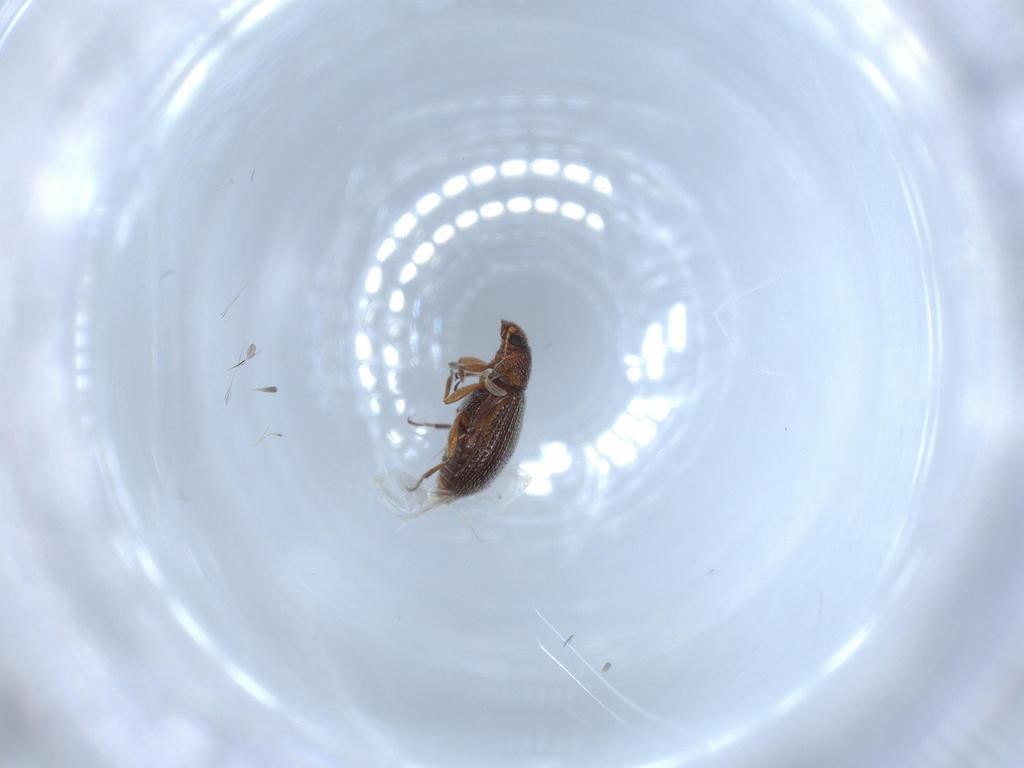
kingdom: Animalia
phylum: Arthropoda
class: Insecta
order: Coleoptera
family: Latridiidae
